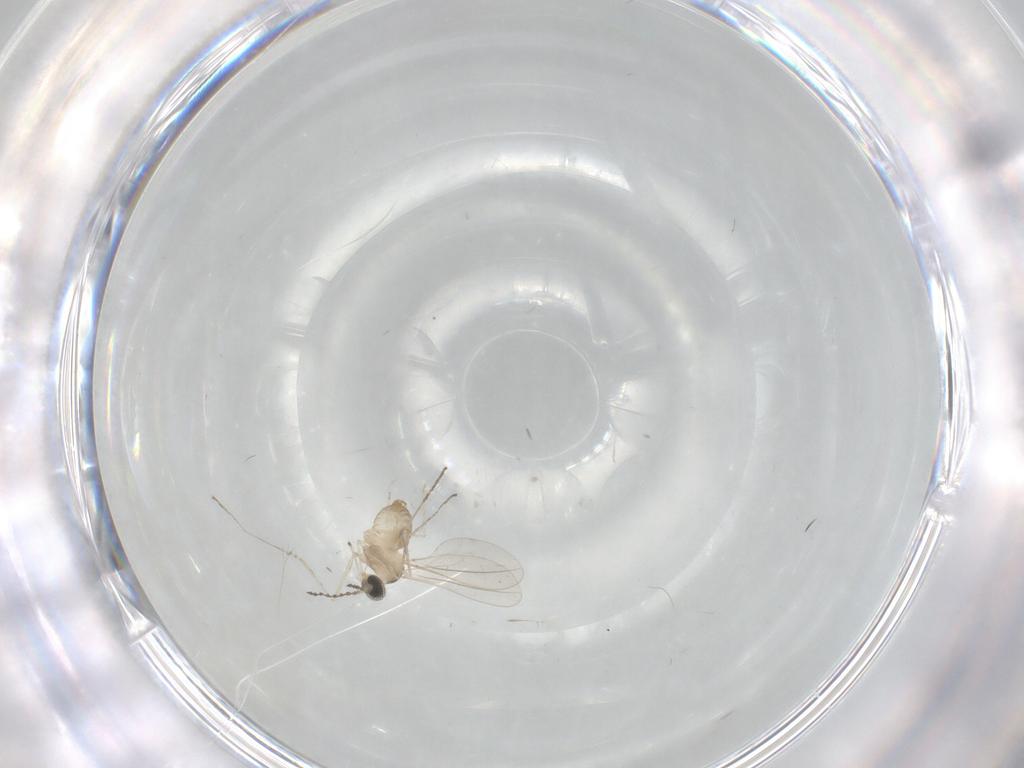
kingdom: Animalia
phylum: Arthropoda
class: Insecta
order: Diptera
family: Cecidomyiidae
